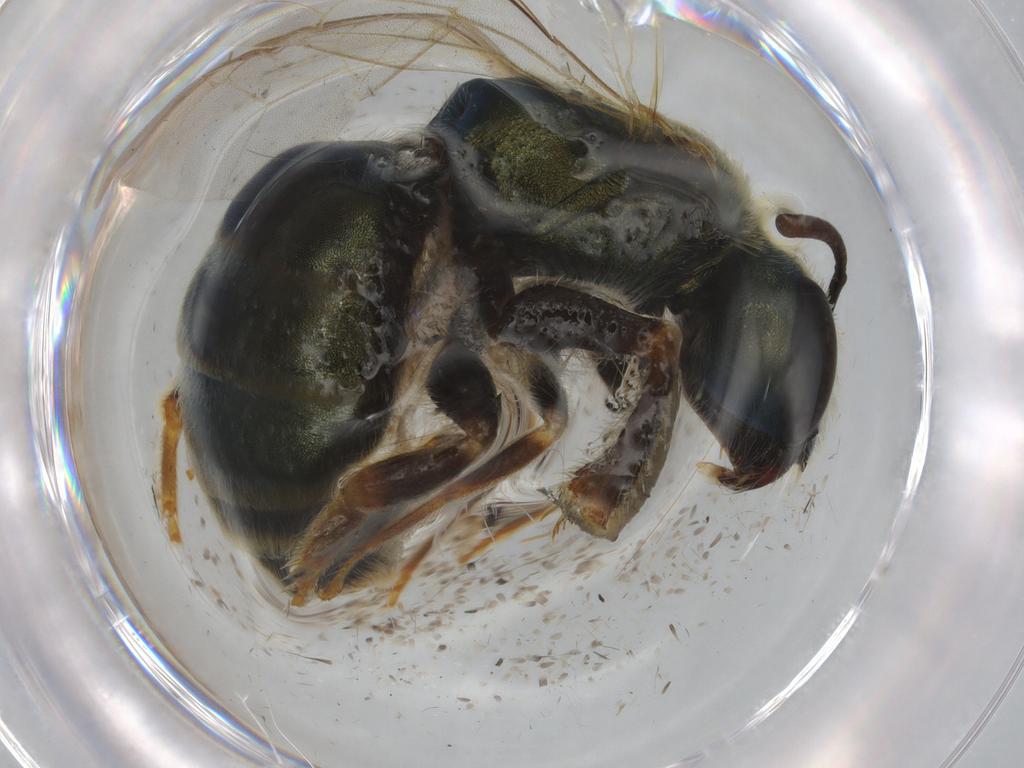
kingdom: Animalia
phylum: Arthropoda
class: Insecta
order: Hymenoptera
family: Halictidae
